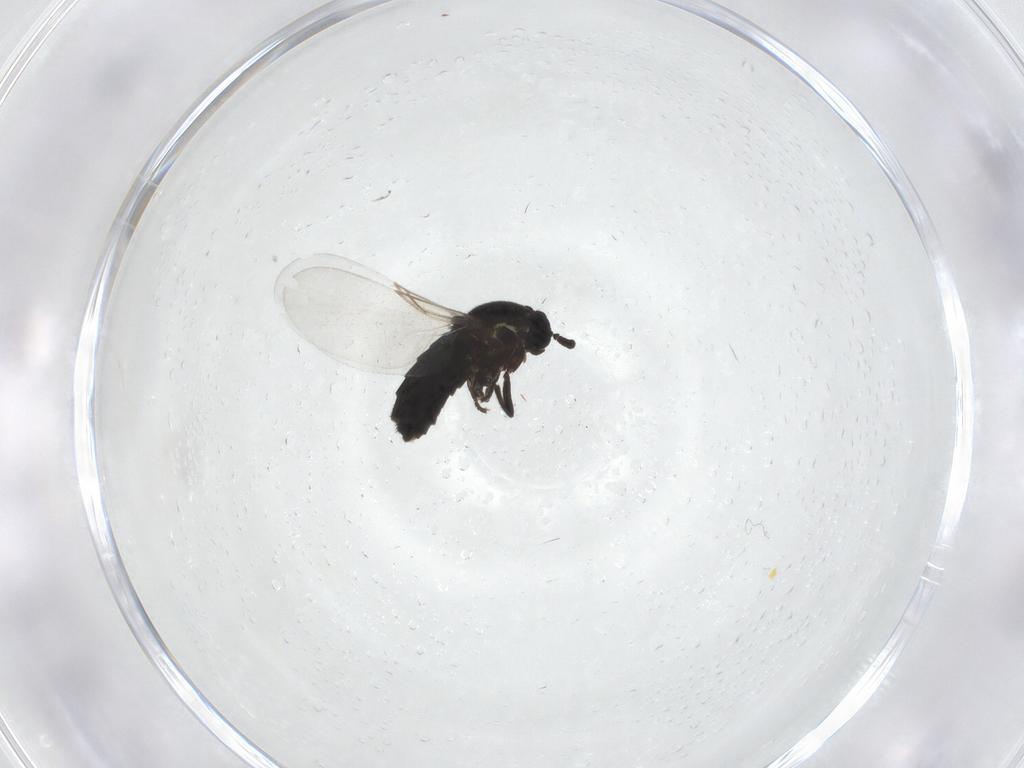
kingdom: Animalia
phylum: Arthropoda
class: Insecta
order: Diptera
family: Scatopsidae
